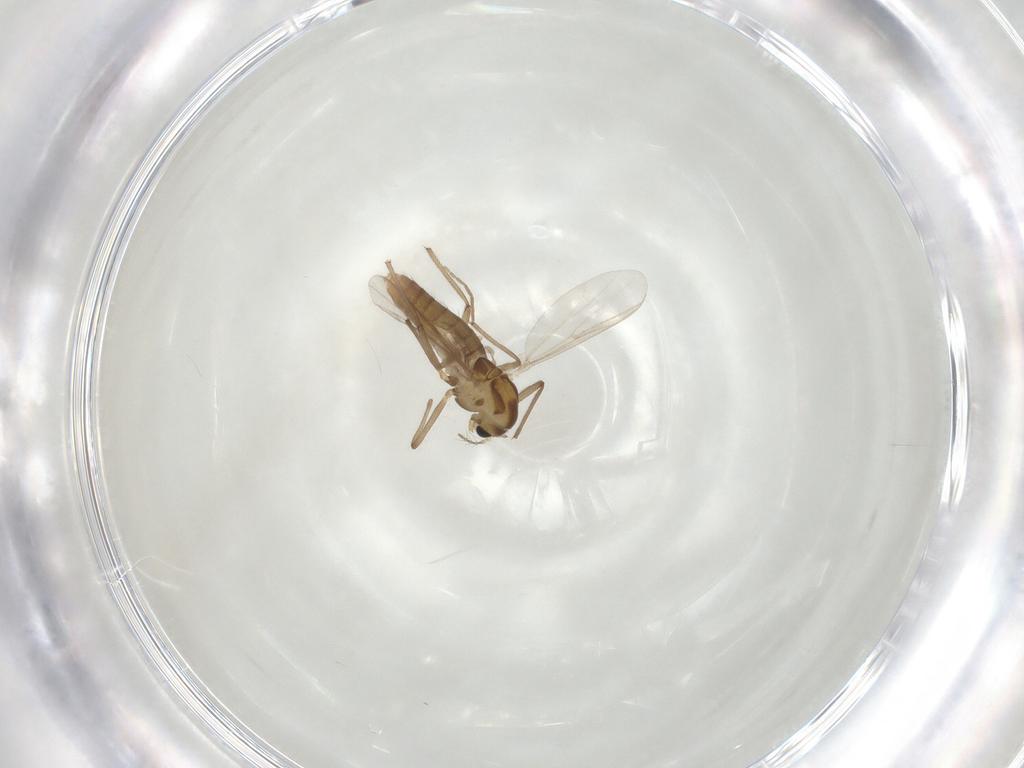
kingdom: Animalia
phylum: Arthropoda
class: Insecta
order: Diptera
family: Chironomidae
